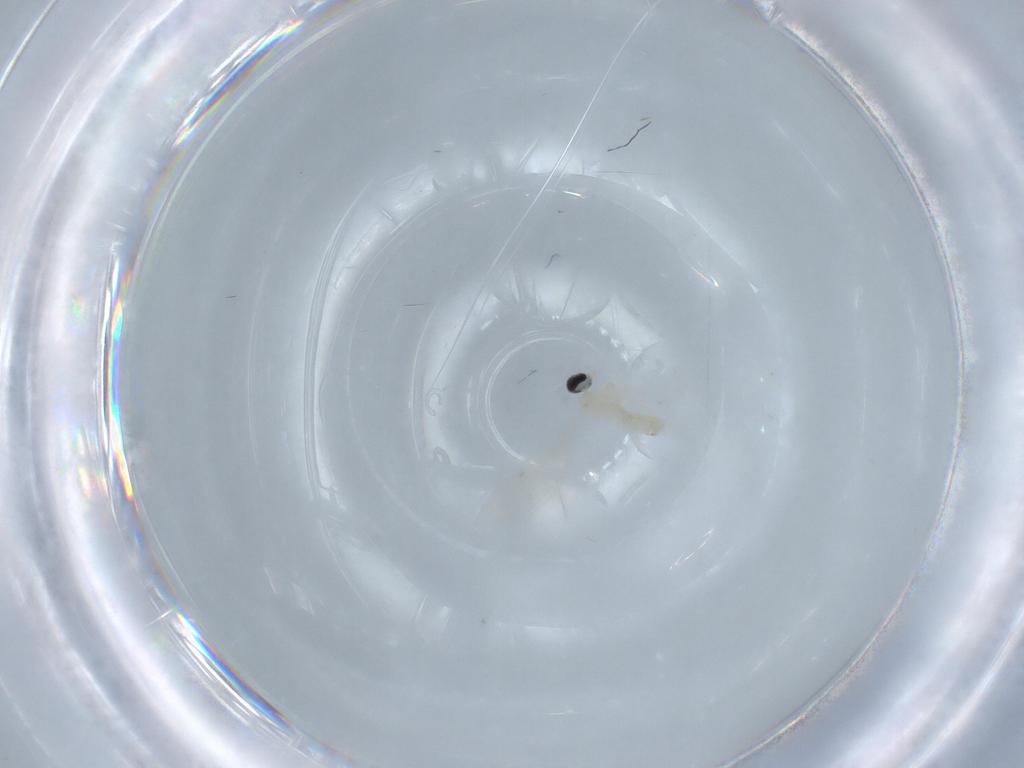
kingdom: Animalia
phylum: Arthropoda
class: Insecta
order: Diptera
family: Cecidomyiidae
